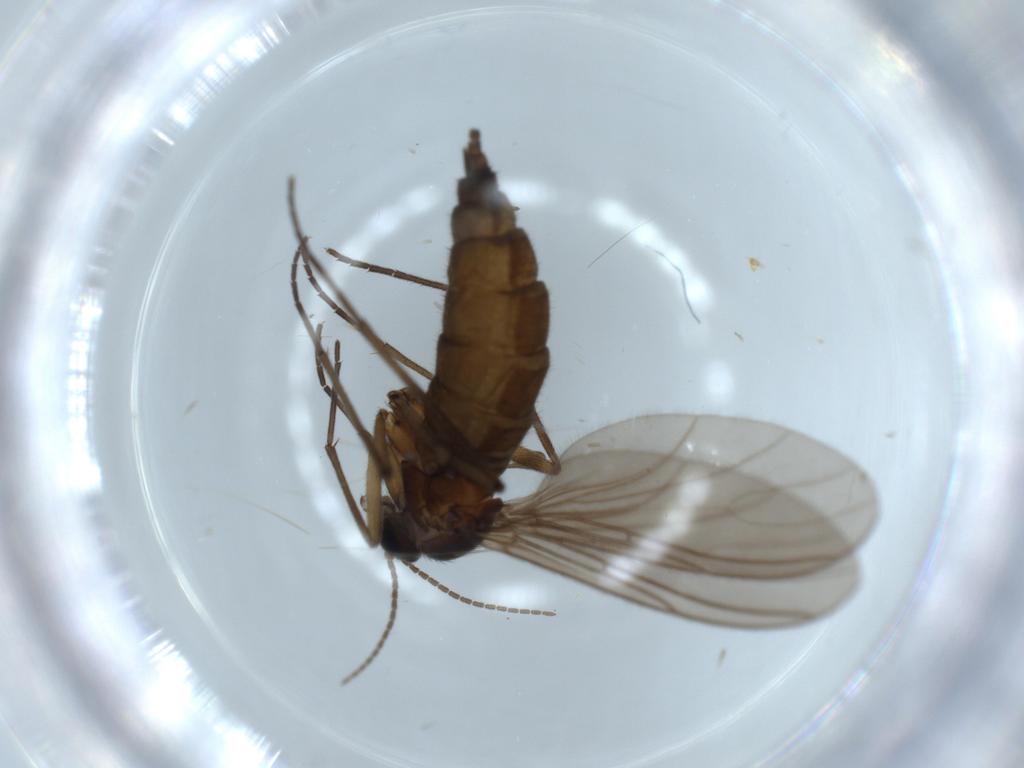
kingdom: Animalia
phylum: Arthropoda
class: Insecta
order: Diptera
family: Sciaridae
